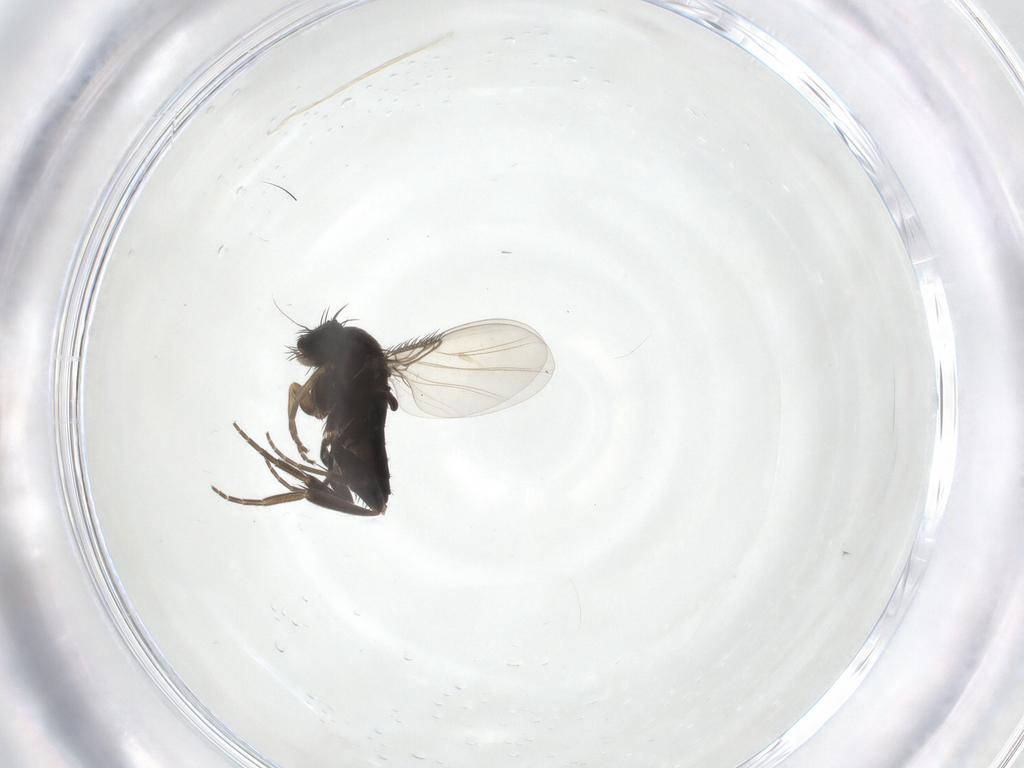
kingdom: Animalia
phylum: Arthropoda
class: Insecta
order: Diptera
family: Phoridae
